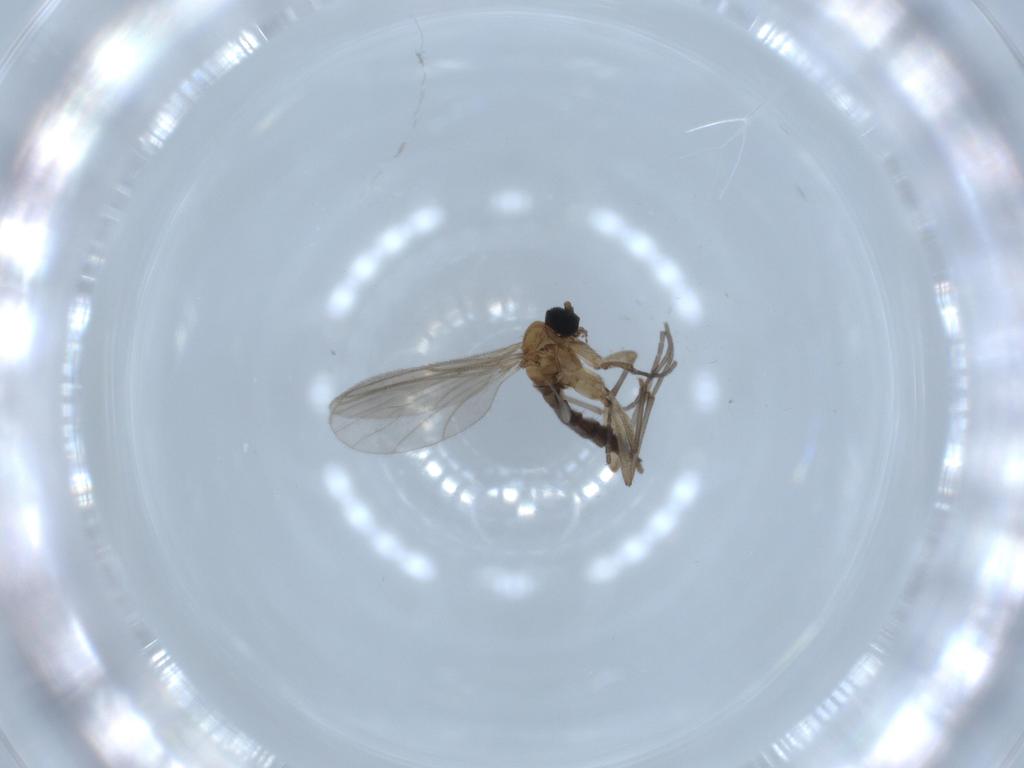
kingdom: Animalia
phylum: Arthropoda
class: Insecta
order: Diptera
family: Sciaridae
